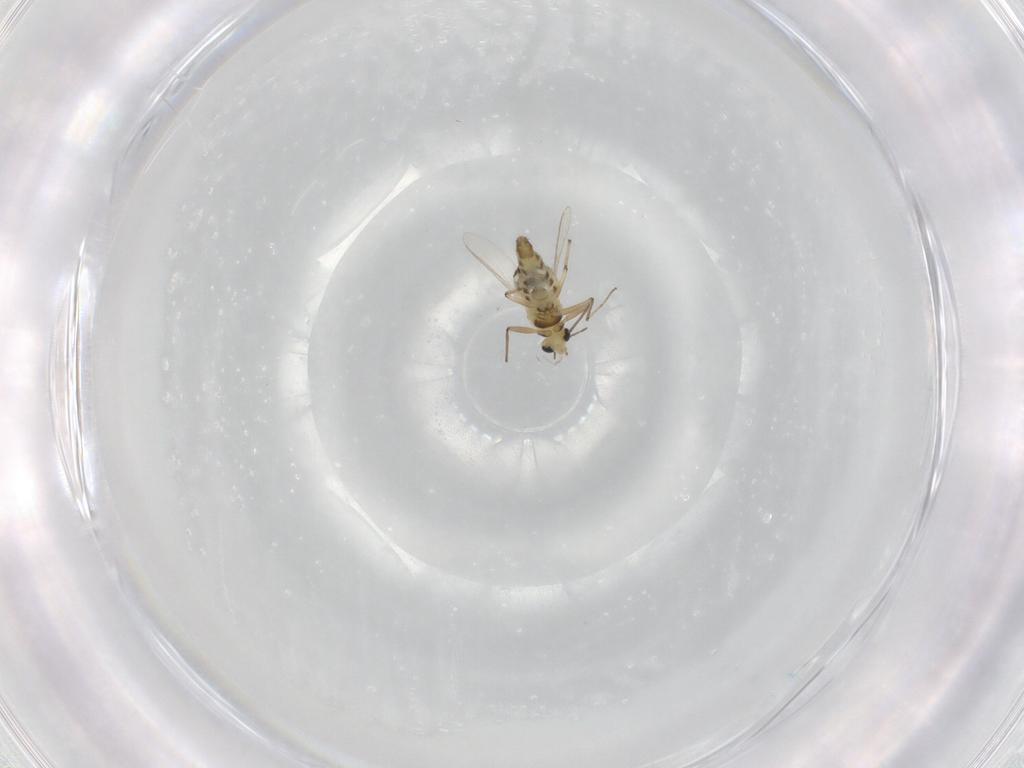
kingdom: Animalia
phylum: Arthropoda
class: Insecta
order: Diptera
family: Chironomidae
